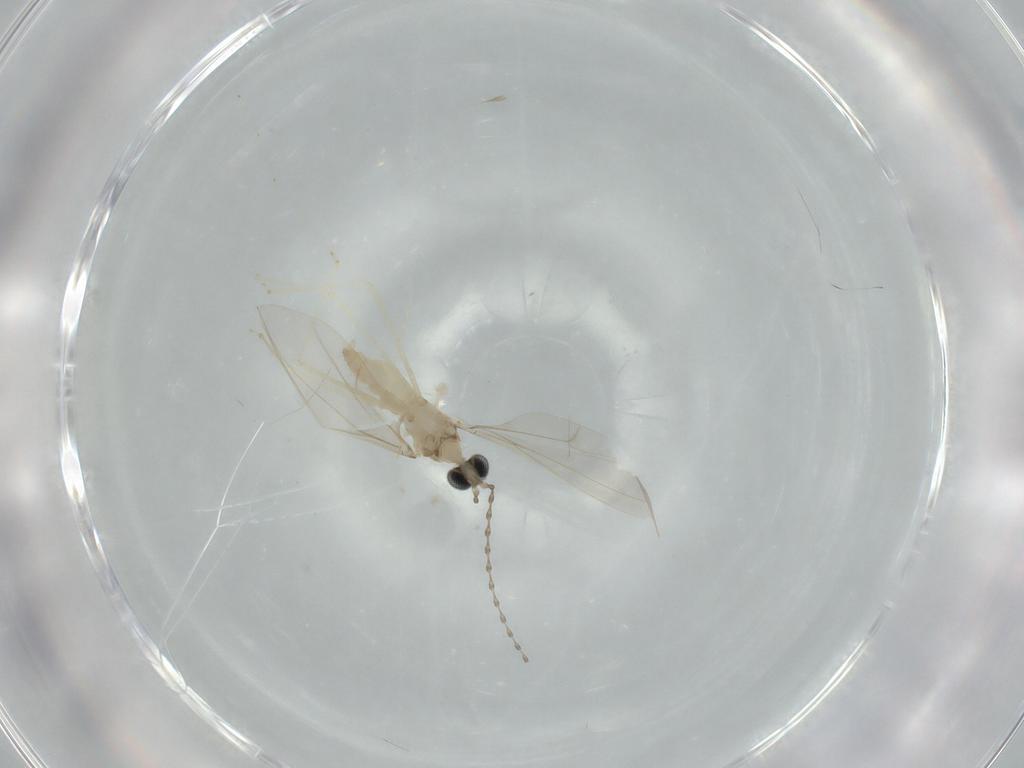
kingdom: Animalia
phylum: Arthropoda
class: Insecta
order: Diptera
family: Cecidomyiidae
